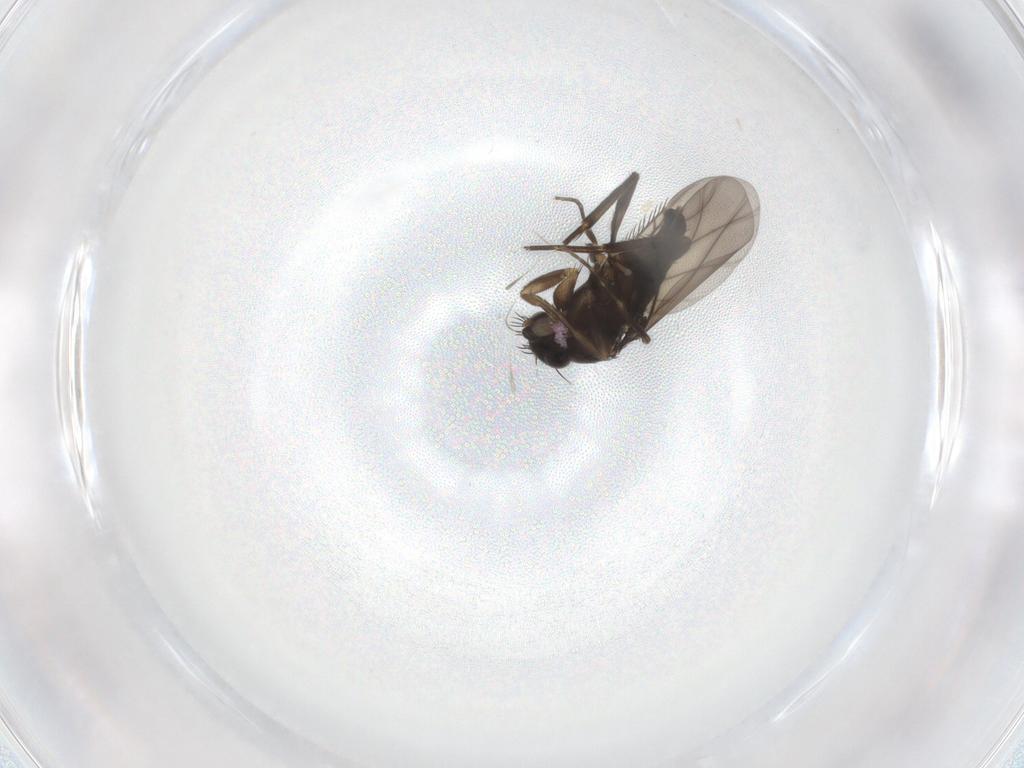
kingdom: Animalia
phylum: Arthropoda
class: Insecta
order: Diptera
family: Phoridae
